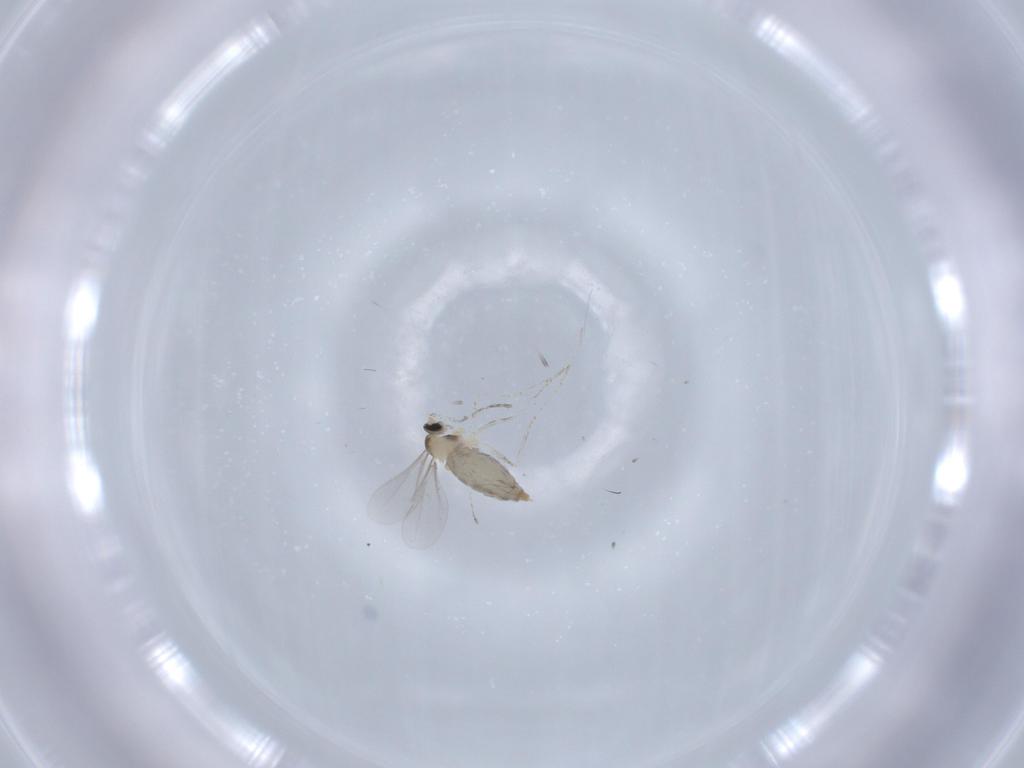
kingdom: Animalia
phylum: Arthropoda
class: Insecta
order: Diptera
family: Cecidomyiidae
